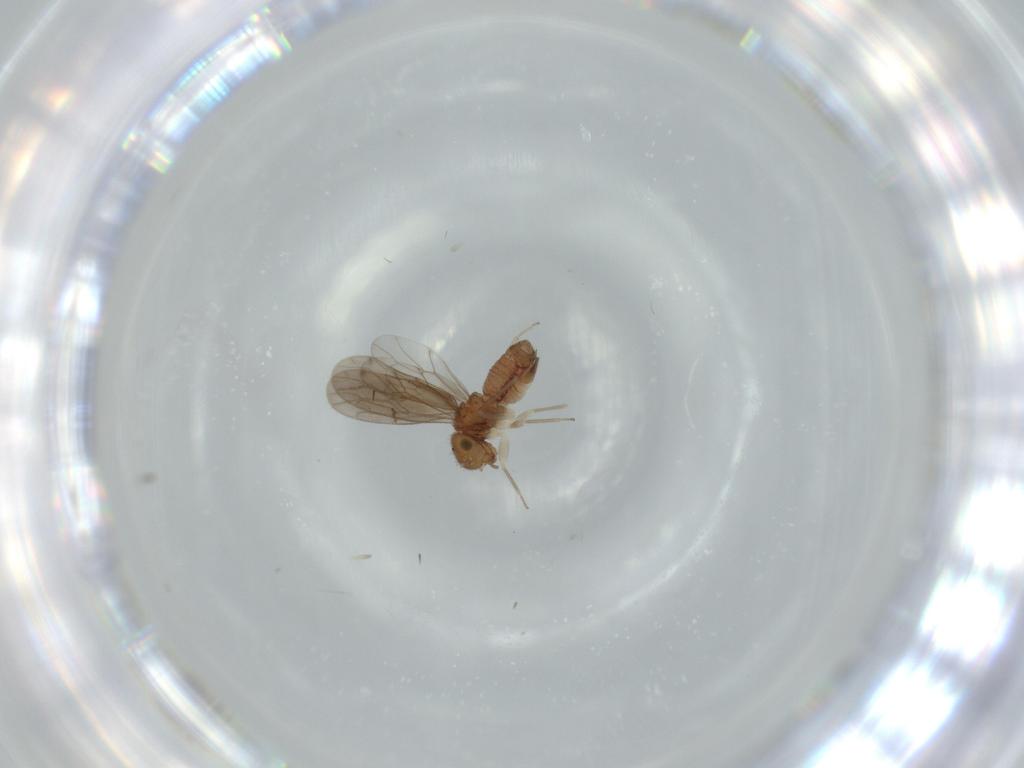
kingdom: Animalia
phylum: Arthropoda
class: Insecta
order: Psocodea
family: Ectopsocidae
